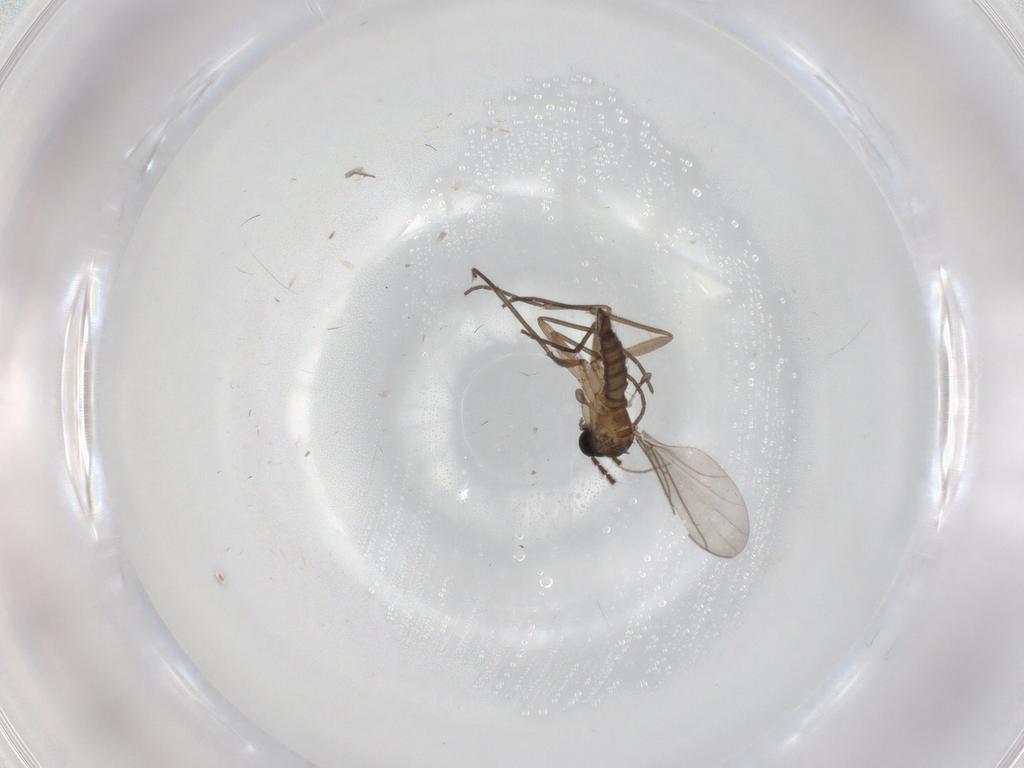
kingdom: Animalia
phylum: Arthropoda
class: Insecta
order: Diptera
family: Sciaridae
